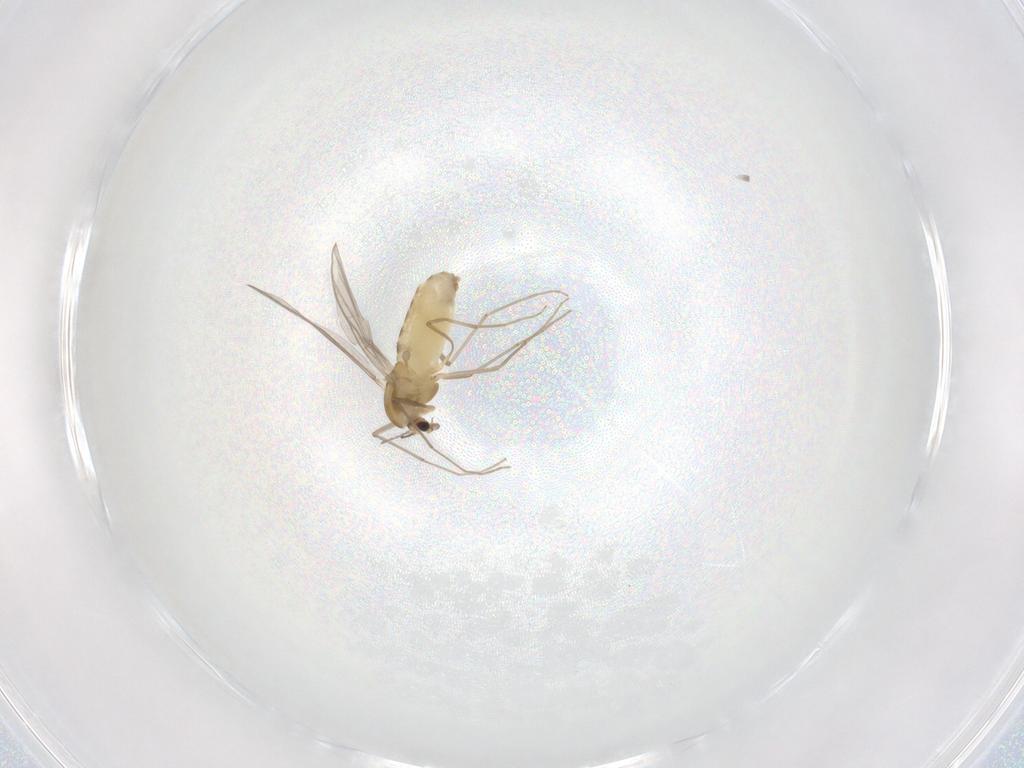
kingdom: Animalia
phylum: Arthropoda
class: Insecta
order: Diptera
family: Chironomidae
